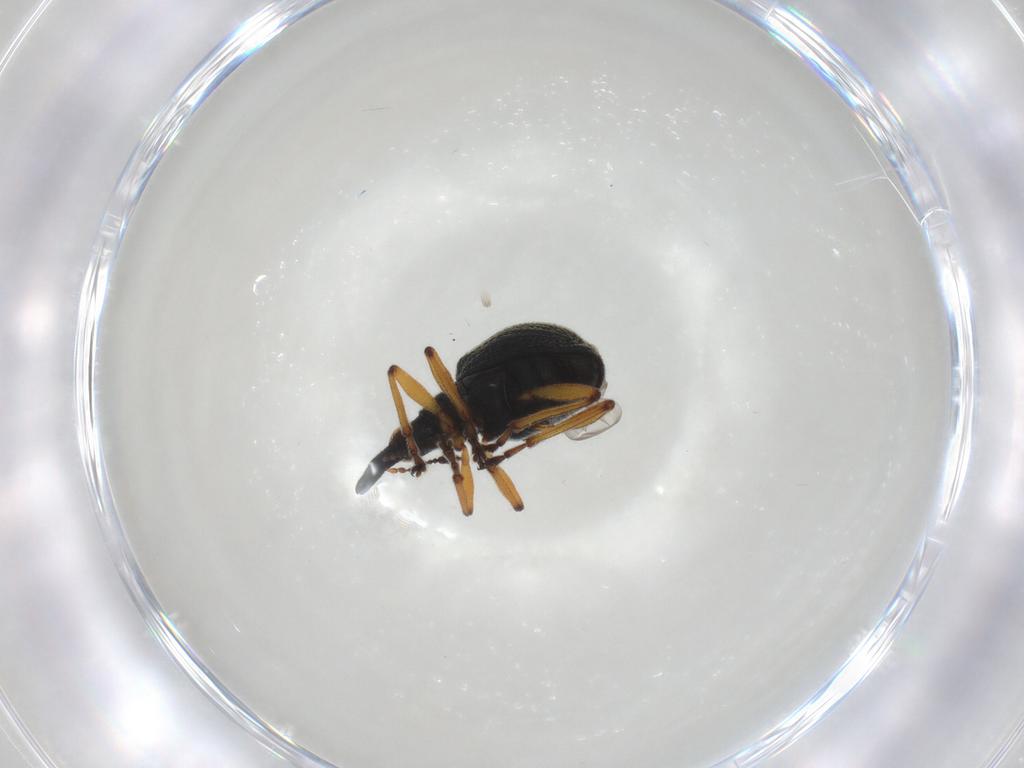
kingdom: Animalia
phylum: Arthropoda
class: Insecta
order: Coleoptera
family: Brentidae
